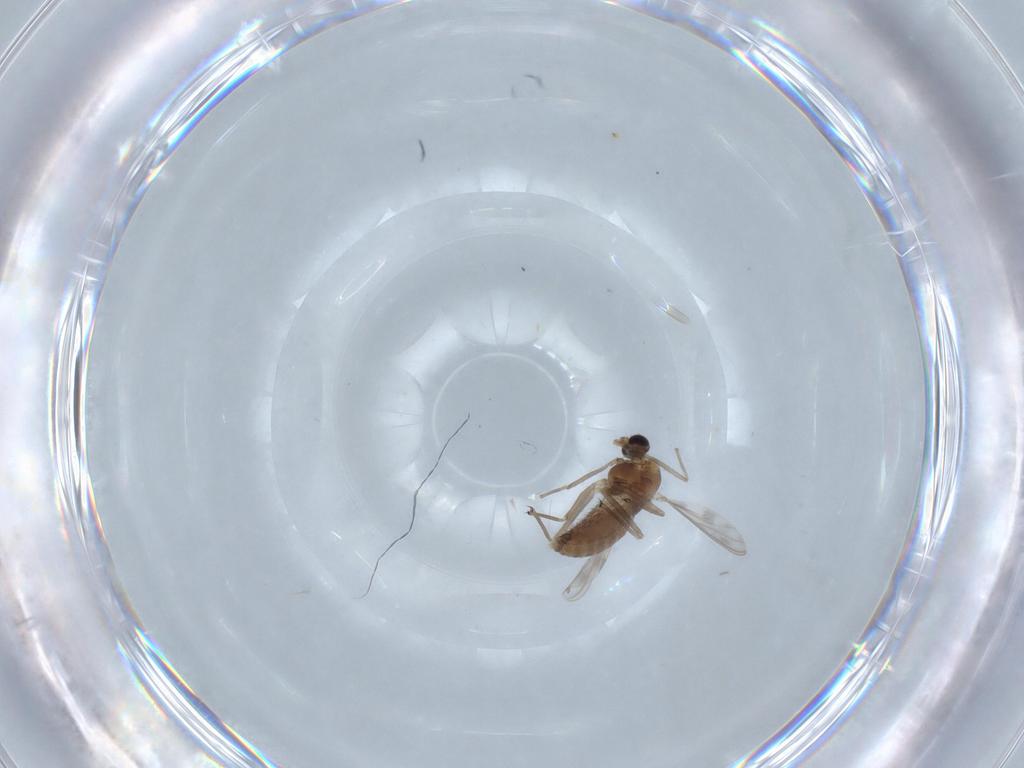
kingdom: Animalia
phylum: Arthropoda
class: Insecta
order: Diptera
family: Chironomidae
